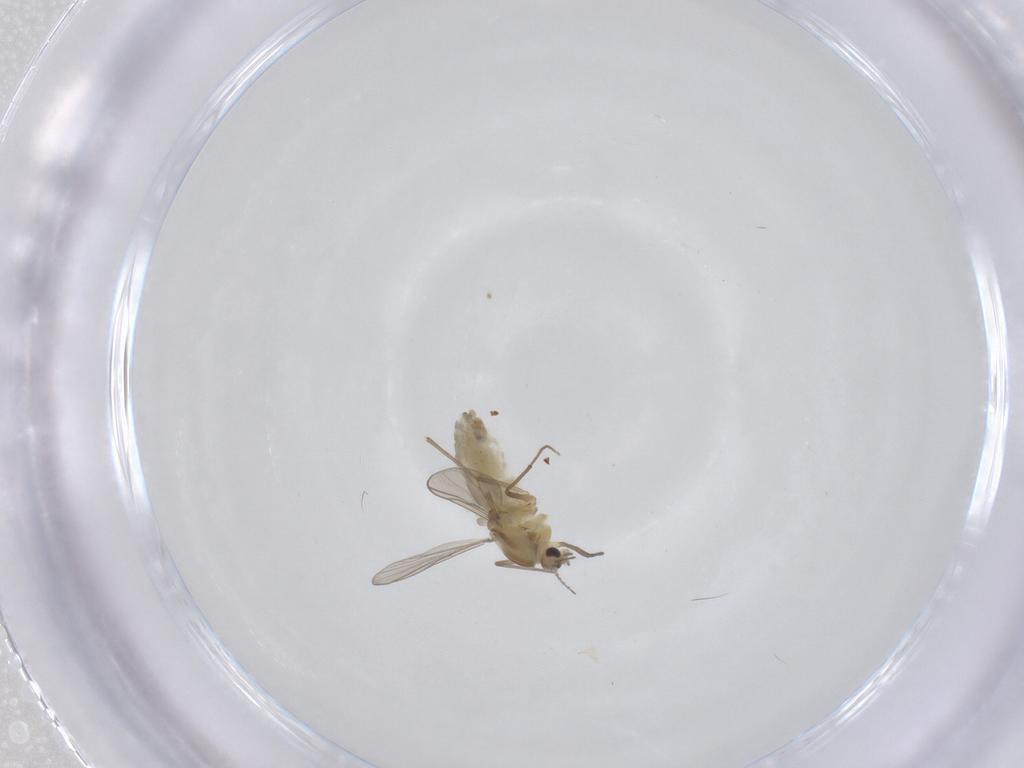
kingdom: Animalia
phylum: Arthropoda
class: Insecta
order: Diptera
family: Chironomidae
